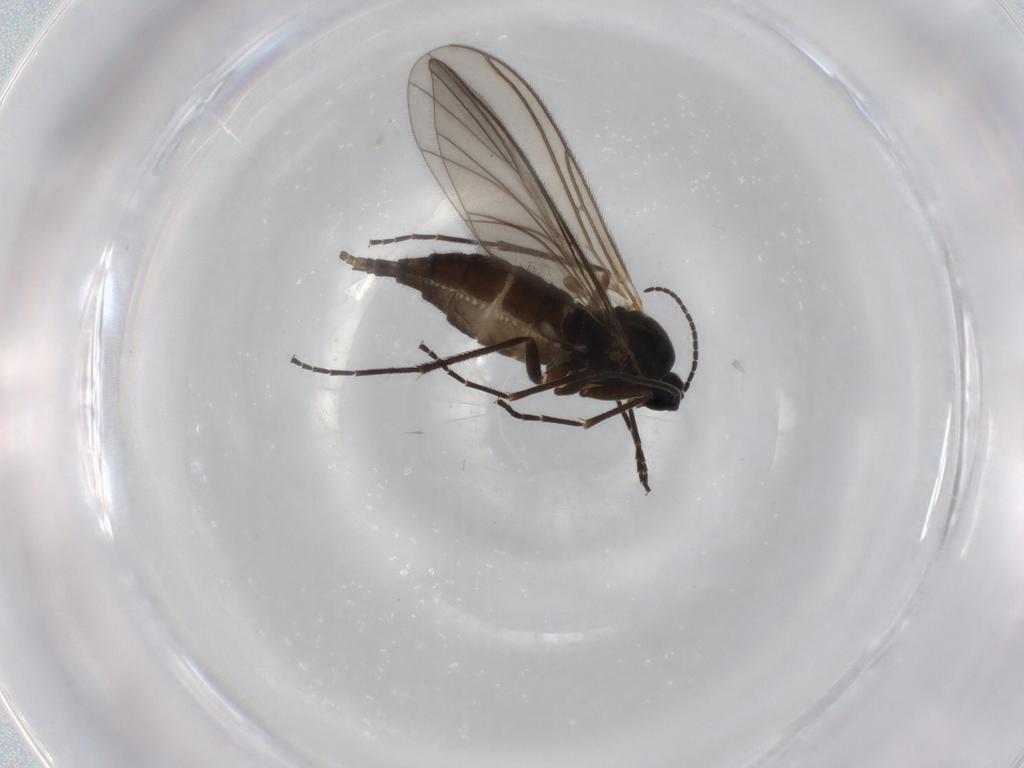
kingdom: Animalia
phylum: Arthropoda
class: Insecta
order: Diptera
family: Sciaridae
